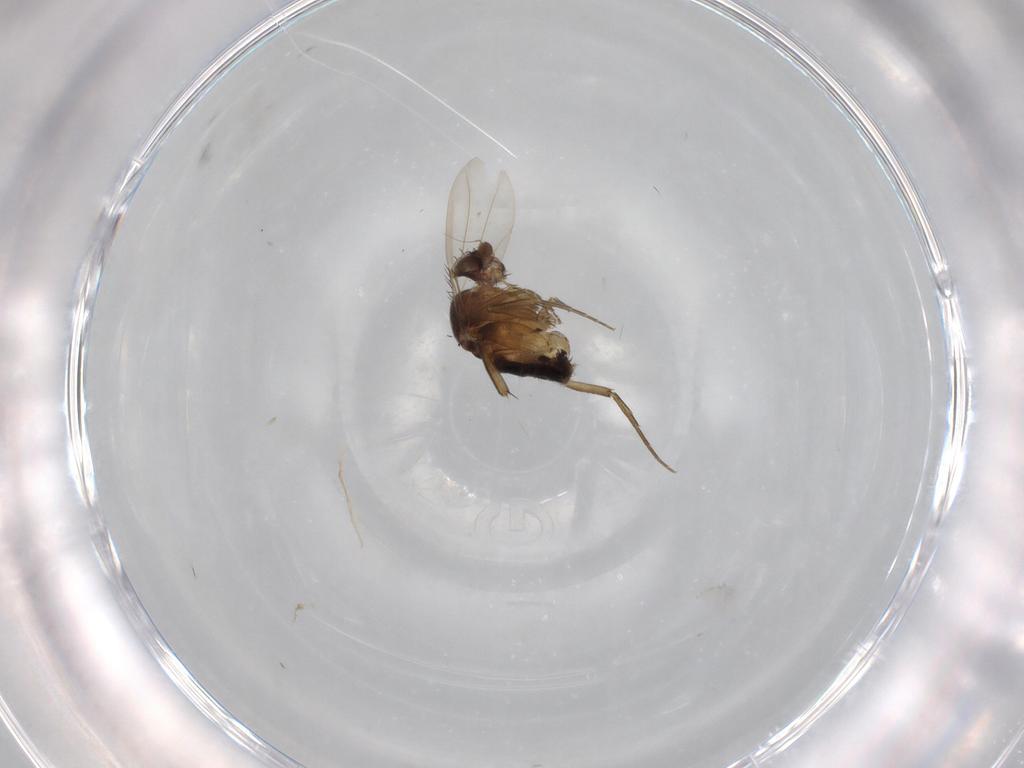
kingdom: Animalia
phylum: Arthropoda
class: Insecta
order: Diptera
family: Phoridae
